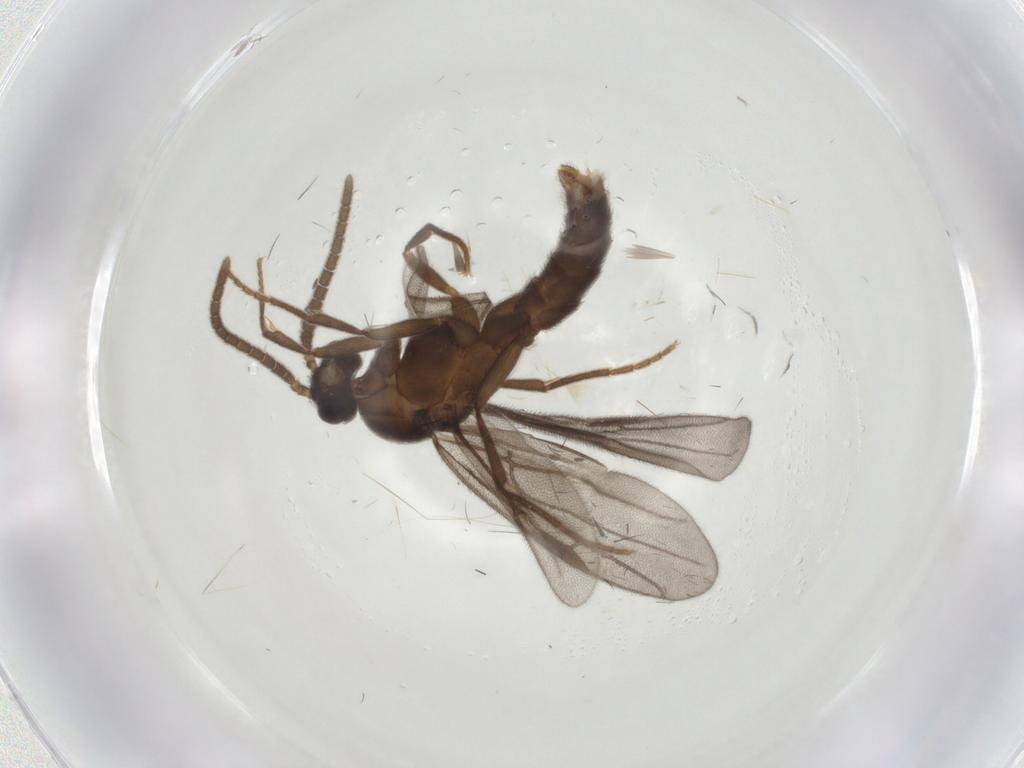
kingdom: Animalia
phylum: Arthropoda
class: Insecta
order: Hymenoptera
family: Formicidae
